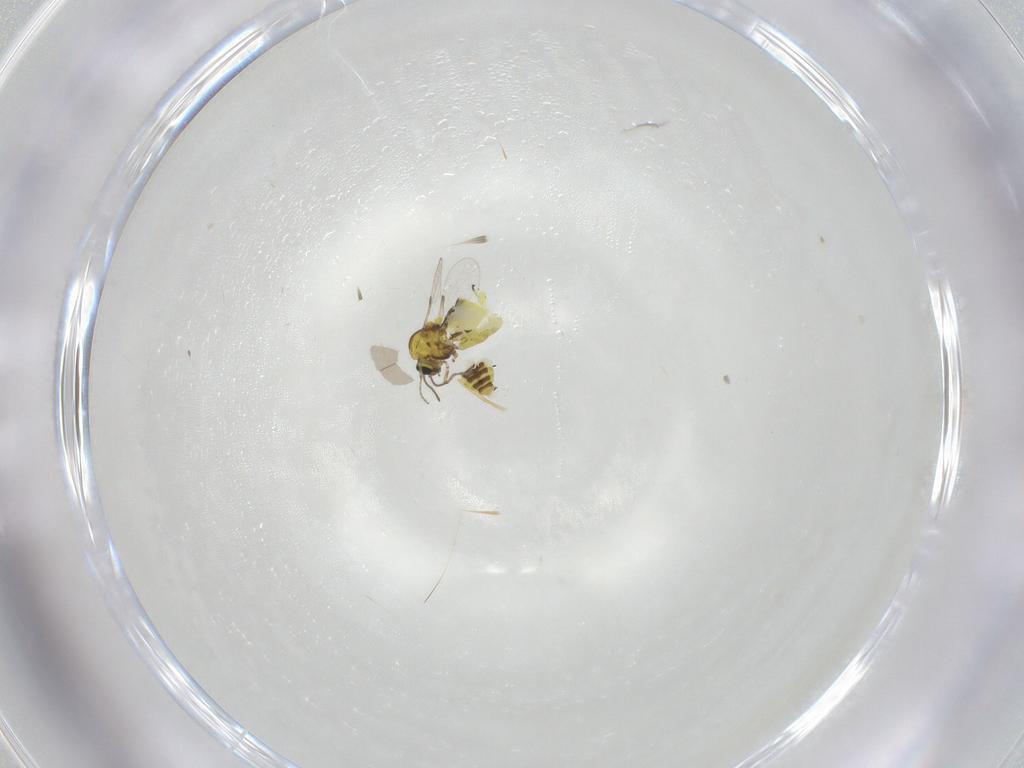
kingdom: Animalia
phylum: Arthropoda
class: Insecta
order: Diptera
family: Ceratopogonidae
